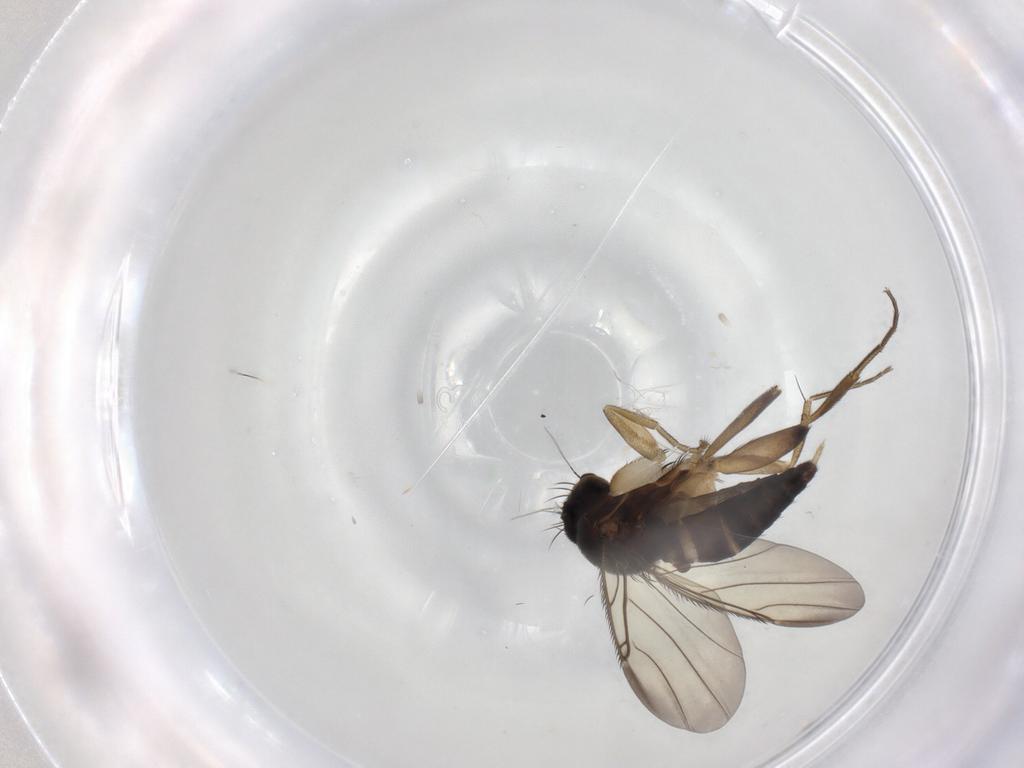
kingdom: Animalia
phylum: Arthropoda
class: Insecta
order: Diptera
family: Phoridae
